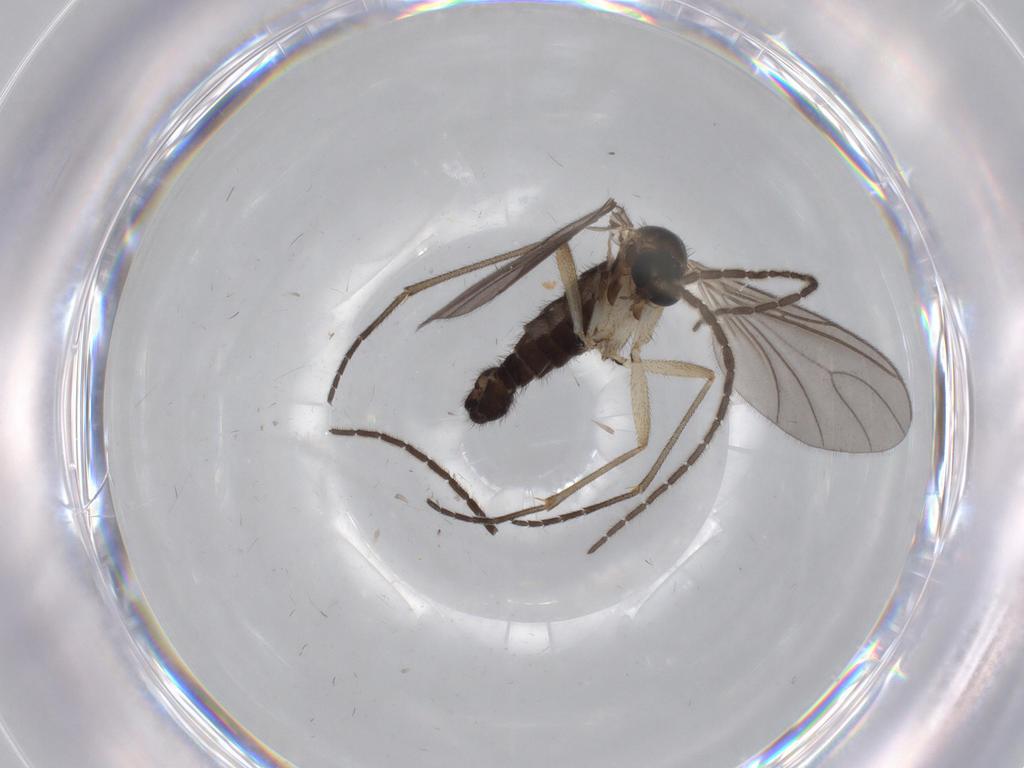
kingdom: Animalia
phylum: Arthropoda
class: Insecta
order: Diptera
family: Sciaridae
